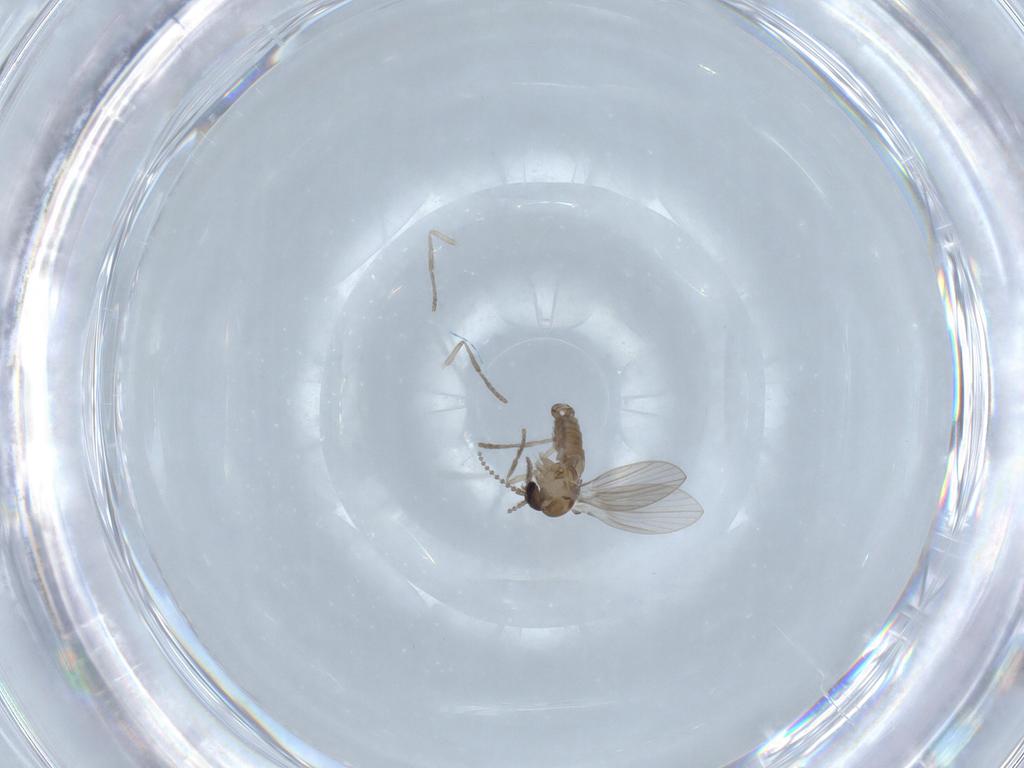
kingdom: Animalia
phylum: Arthropoda
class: Insecta
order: Diptera
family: Psychodidae
